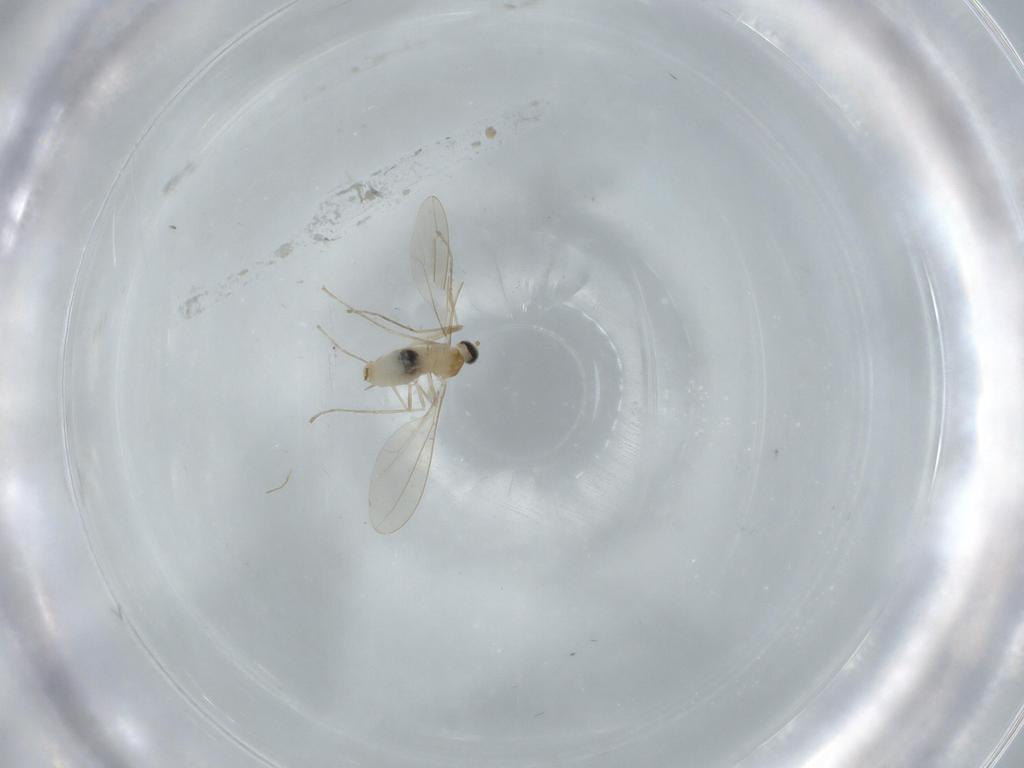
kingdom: Animalia
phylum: Arthropoda
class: Insecta
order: Diptera
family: Cecidomyiidae
